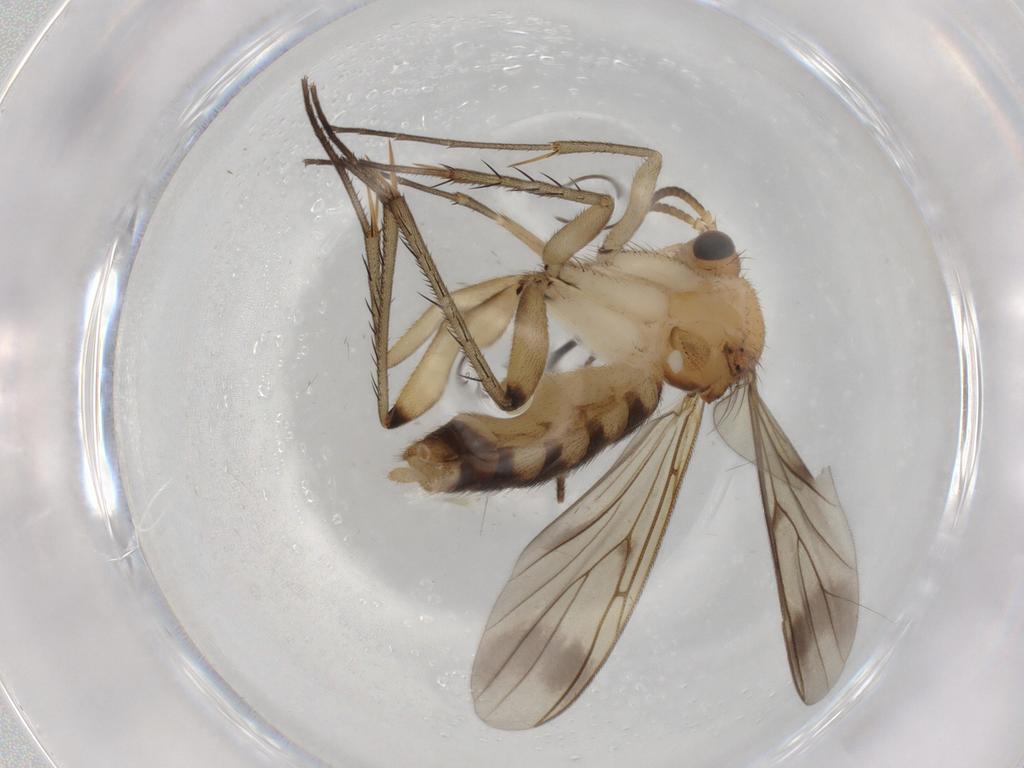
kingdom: Animalia
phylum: Arthropoda
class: Insecta
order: Diptera
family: Mycetophilidae
